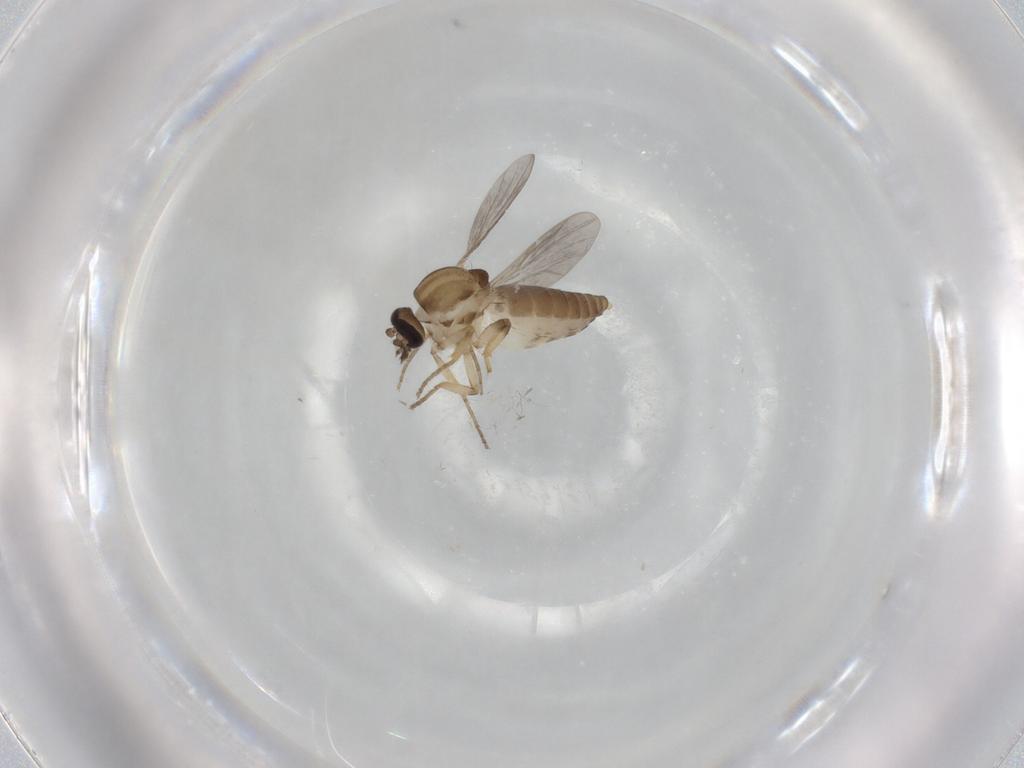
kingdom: Animalia
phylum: Arthropoda
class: Insecta
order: Diptera
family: Ceratopogonidae
